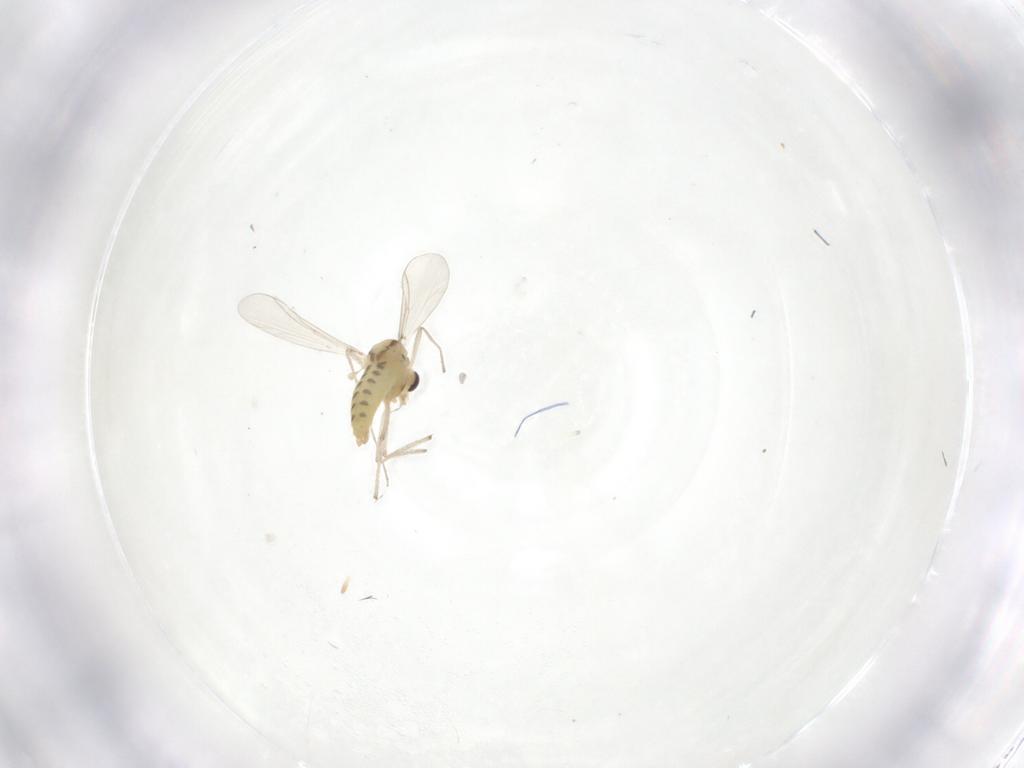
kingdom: Animalia
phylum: Arthropoda
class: Insecta
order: Diptera
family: Chironomidae
